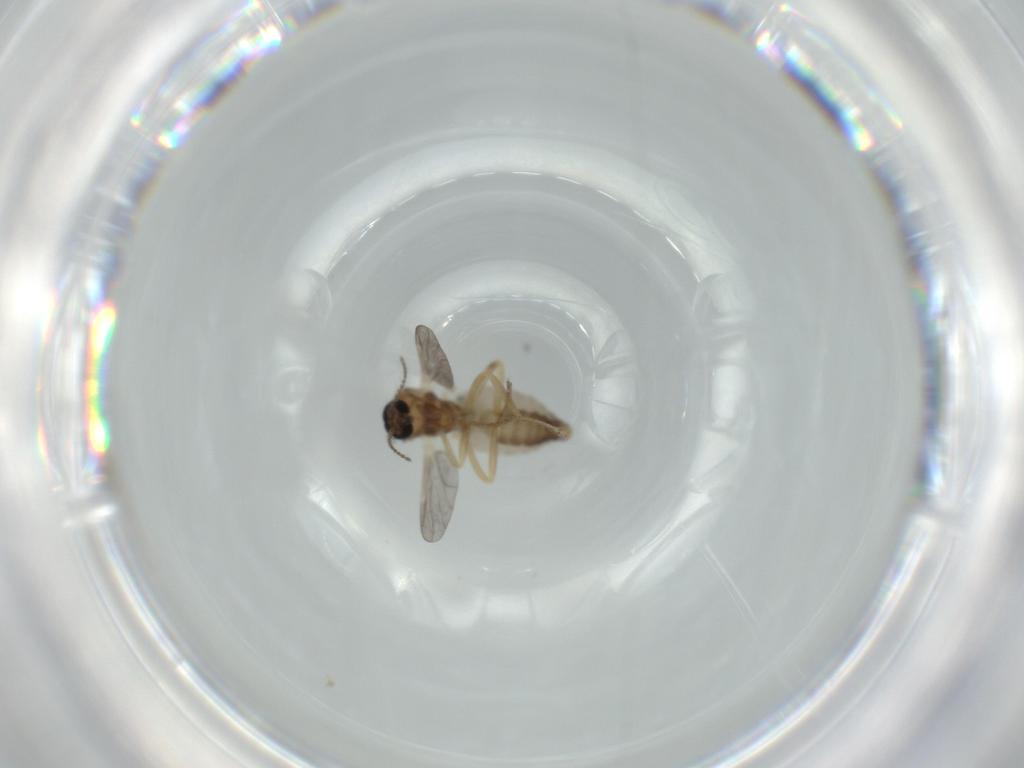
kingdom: Animalia
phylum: Arthropoda
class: Insecta
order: Diptera
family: Ceratopogonidae
